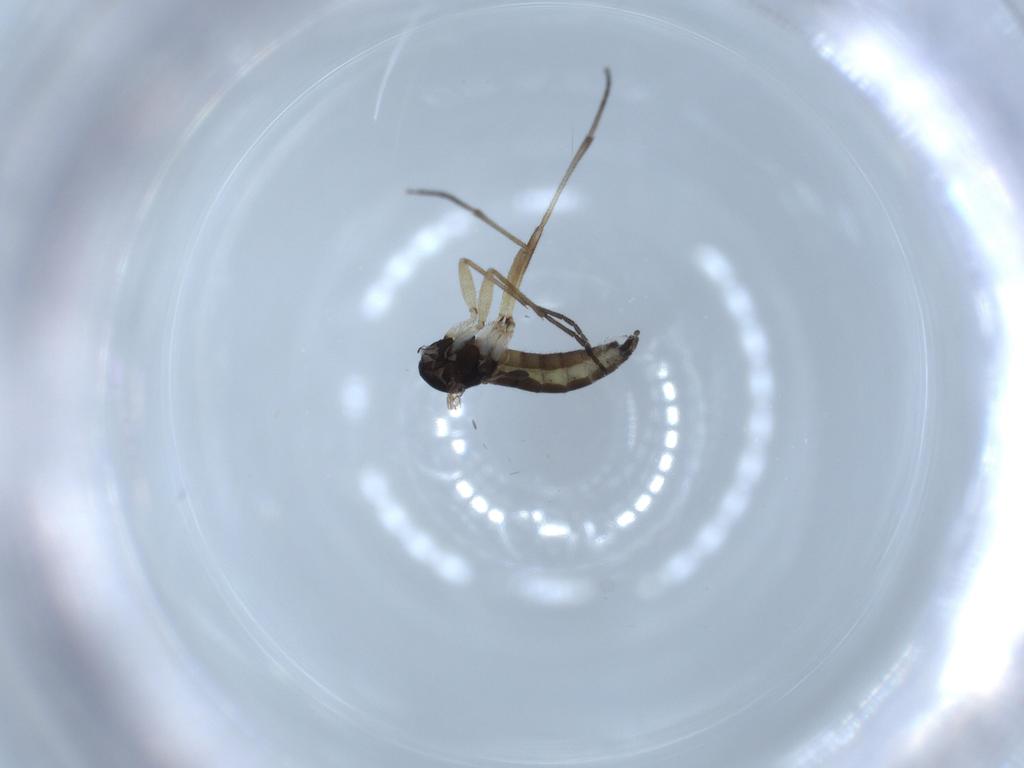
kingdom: Animalia
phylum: Arthropoda
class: Insecta
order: Diptera
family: Sciaridae
